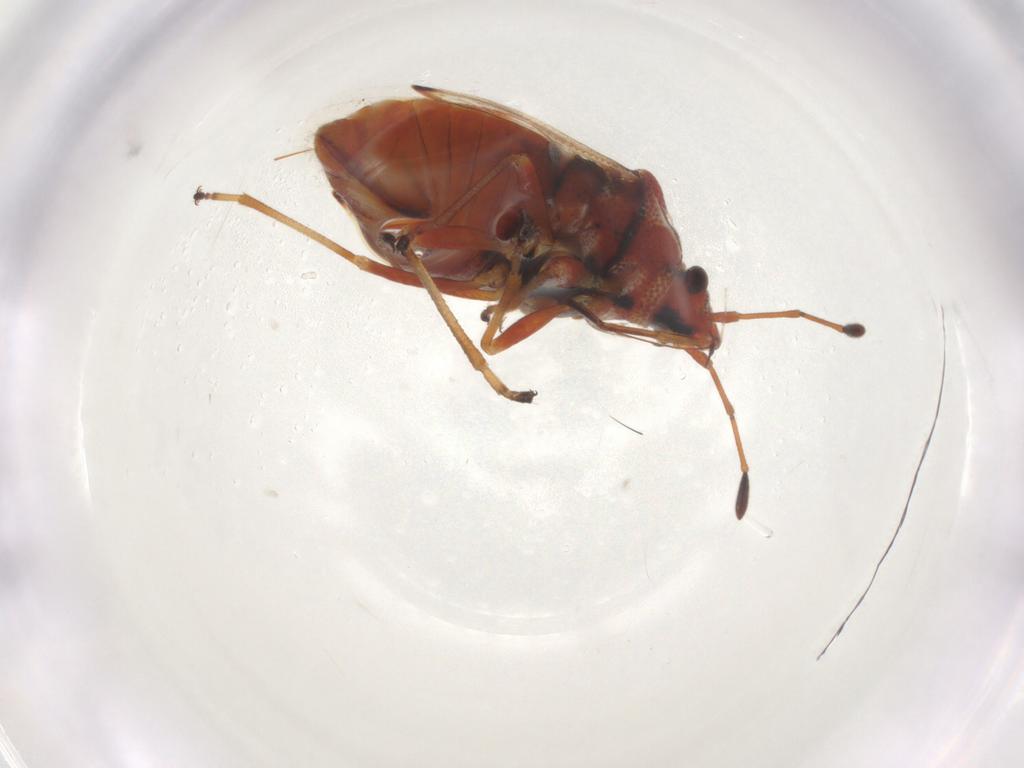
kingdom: Animalia
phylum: Arthropoda
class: Insecta
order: Hemiptera
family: Lygaeidae
